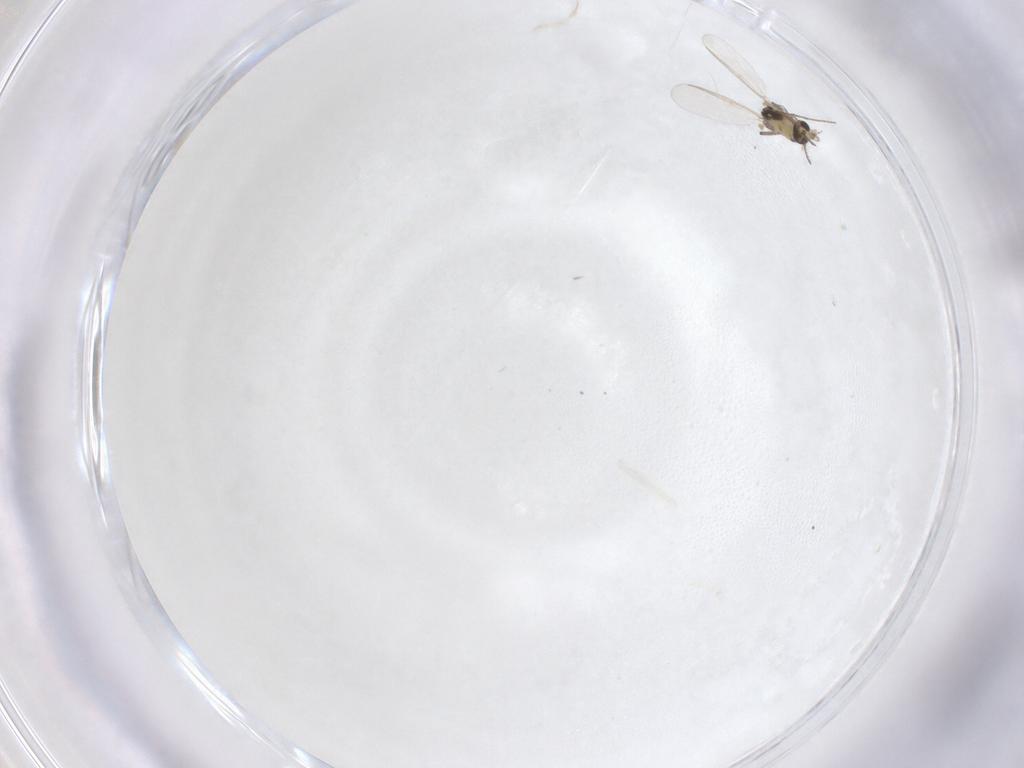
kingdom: Animalia
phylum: Arthropoda
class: Insecta
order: Diptera
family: Chironomidae
